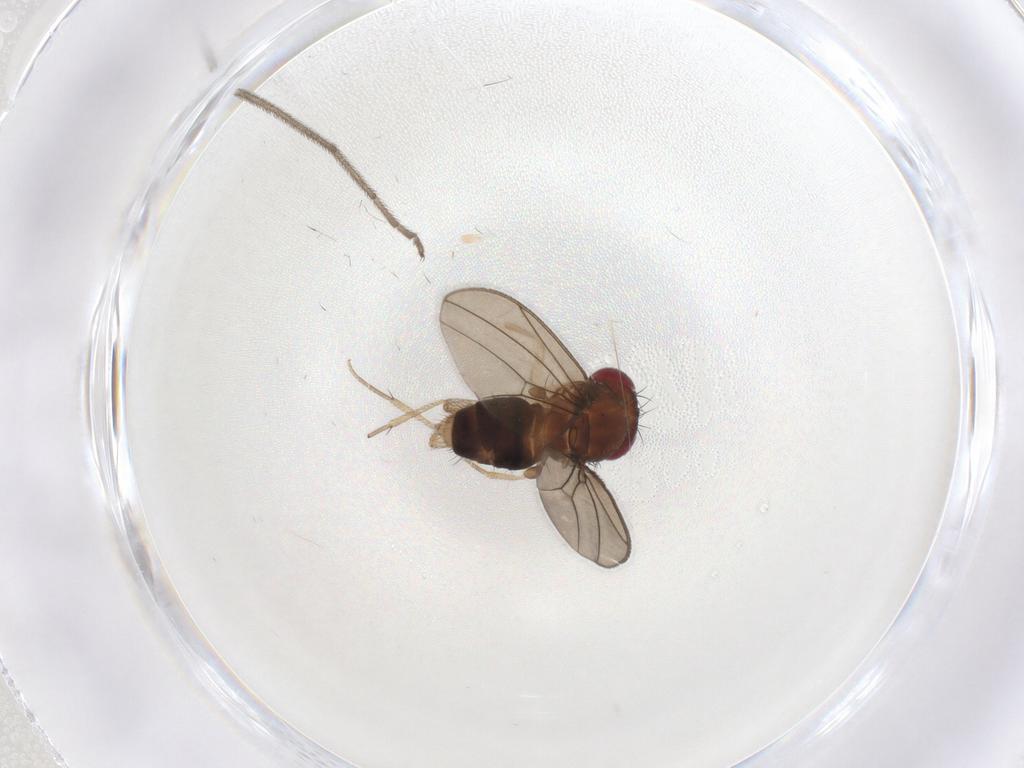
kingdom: Animalia
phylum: Arthropoda
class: Insecta
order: Diptera
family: Drosophilidae
